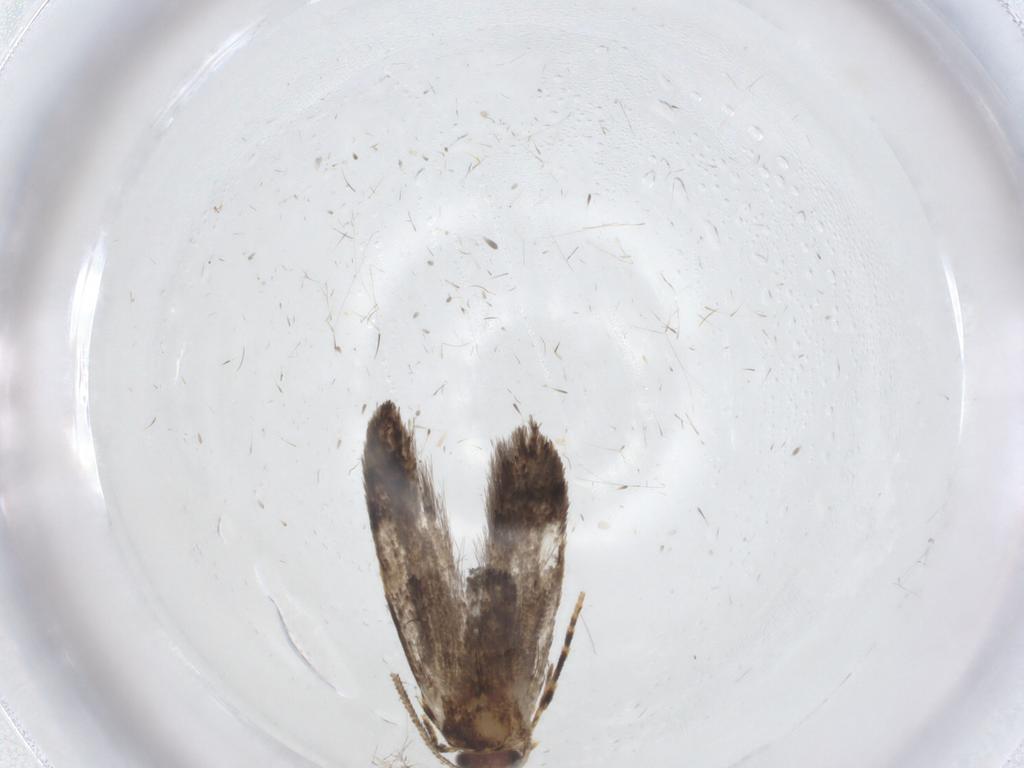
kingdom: Animalia
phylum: Arthropoda
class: Insecta
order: Lepidoptera
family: Tineidae
